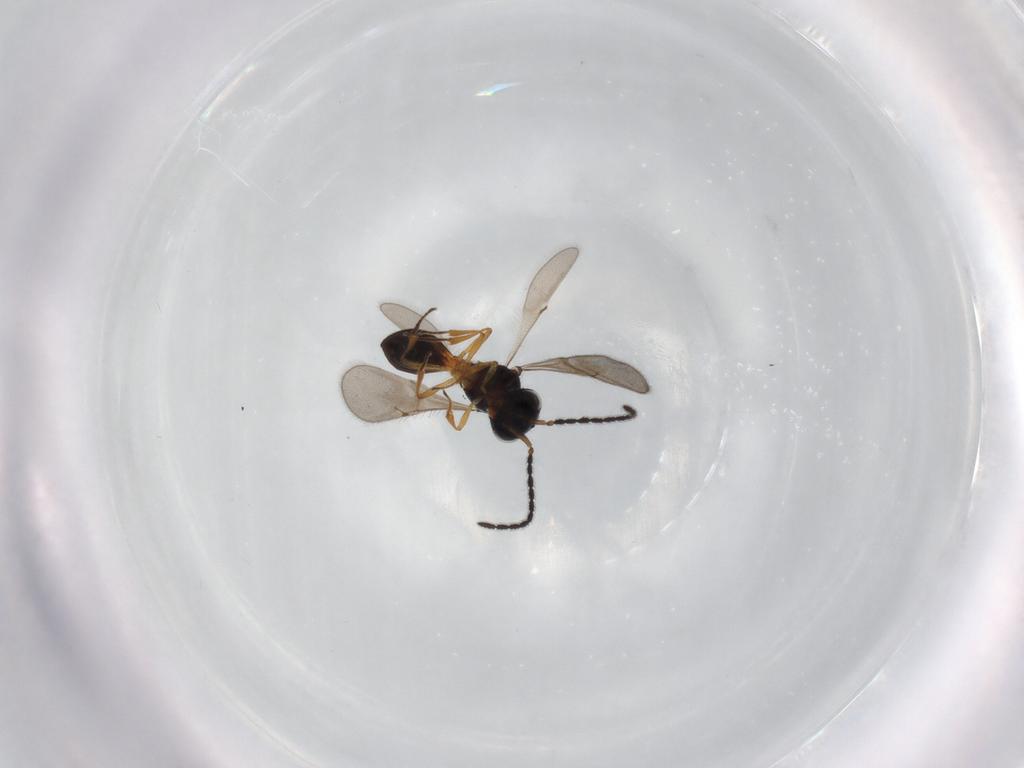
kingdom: Animalia
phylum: Arthropoda
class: Insecta
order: Hymenoptera
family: Scelionidae
